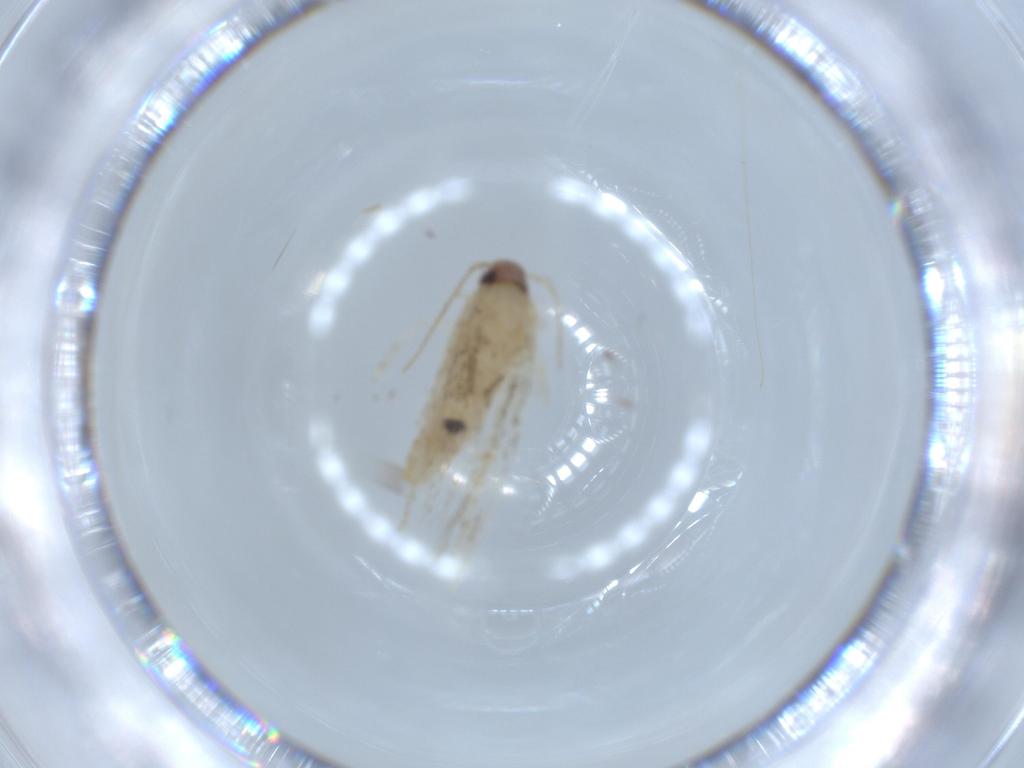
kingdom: Animalia
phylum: Arthropoda
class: Insecta
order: Lepidoptera
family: Stathmopodidae
